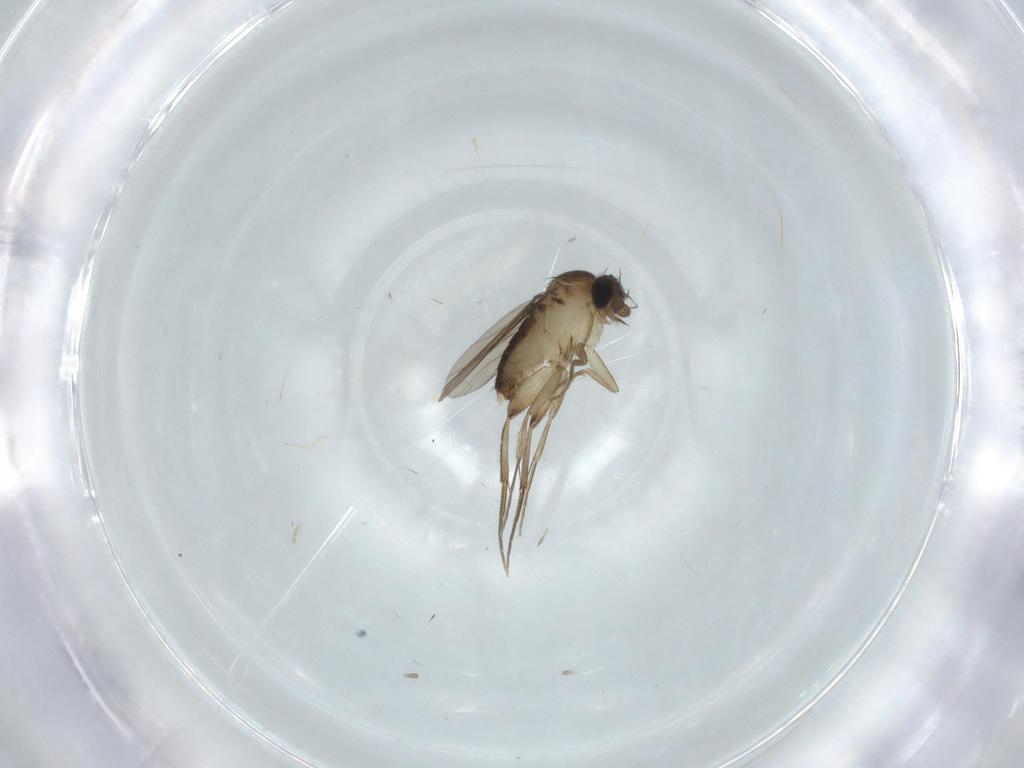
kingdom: Animalia
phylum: Arthropoda
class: Insecta
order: Diptera
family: Phoridae
